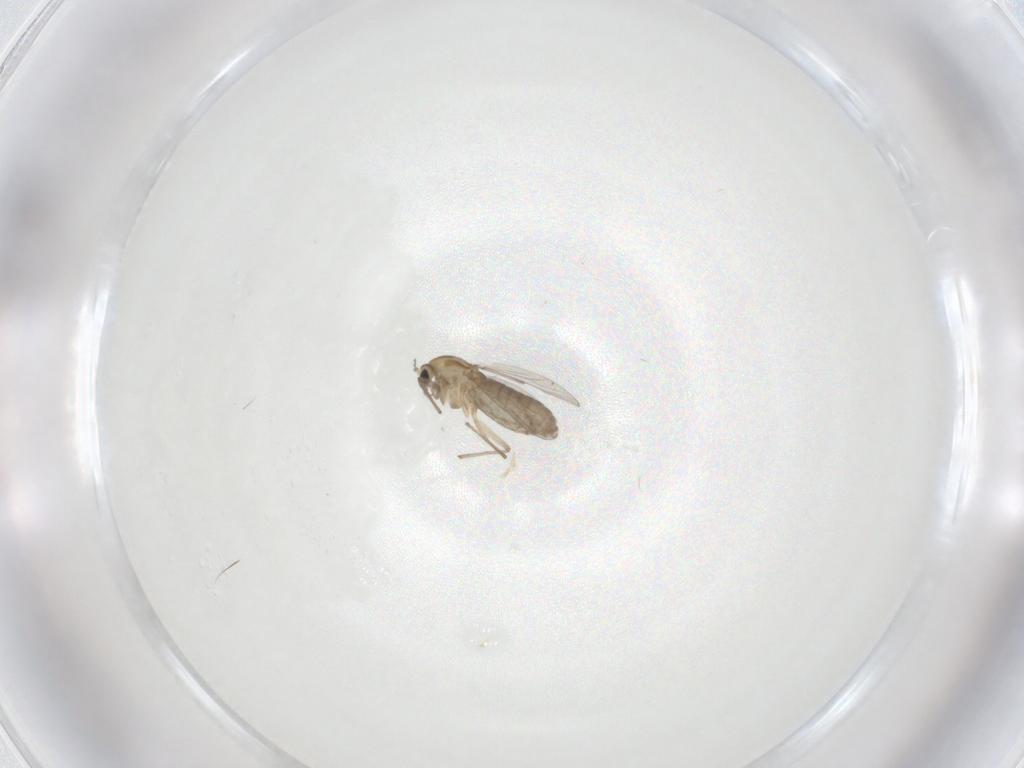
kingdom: Animalia
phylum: Arthropoda
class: Insecta
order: Diptera
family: Chironomidae
